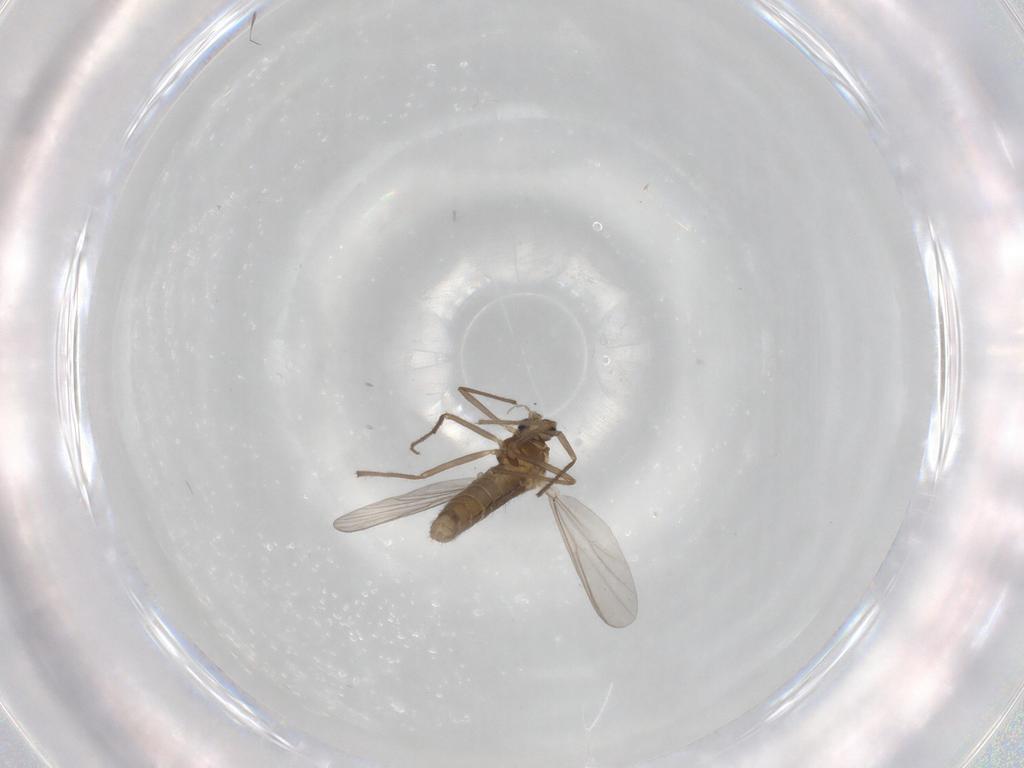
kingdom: Animalia
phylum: Arthropoda
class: Insecta
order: Diptera
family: Chironomidae
